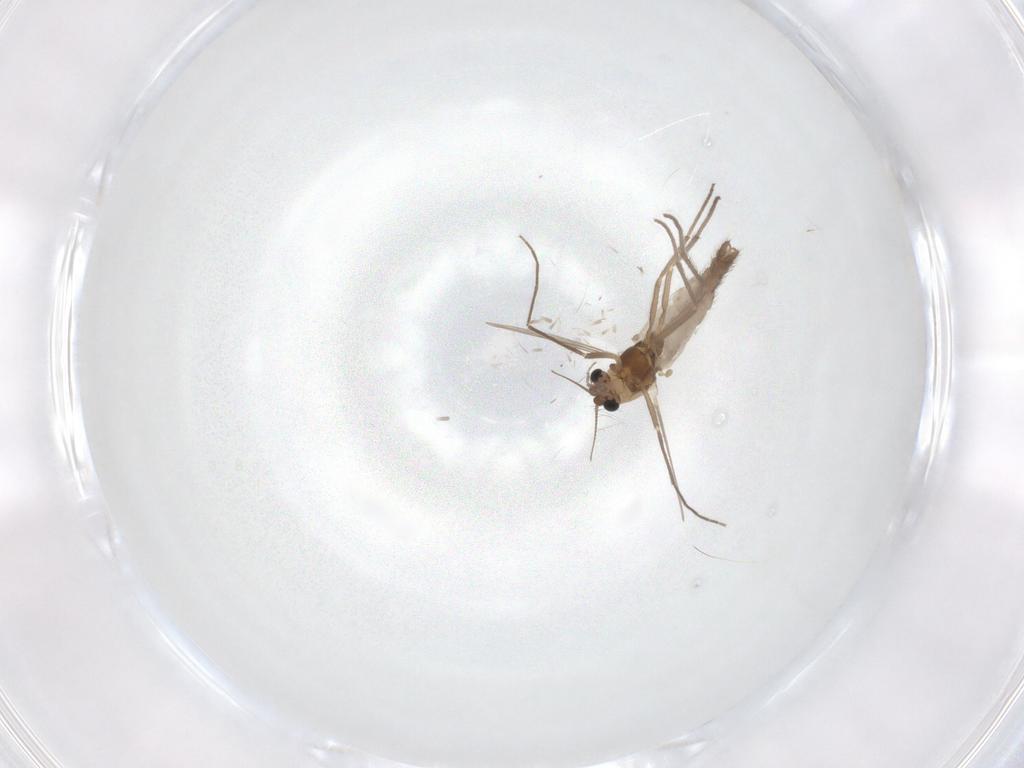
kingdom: Animalia
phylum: Arthropoda
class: Insecta
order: Diptera
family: Chironomidae
